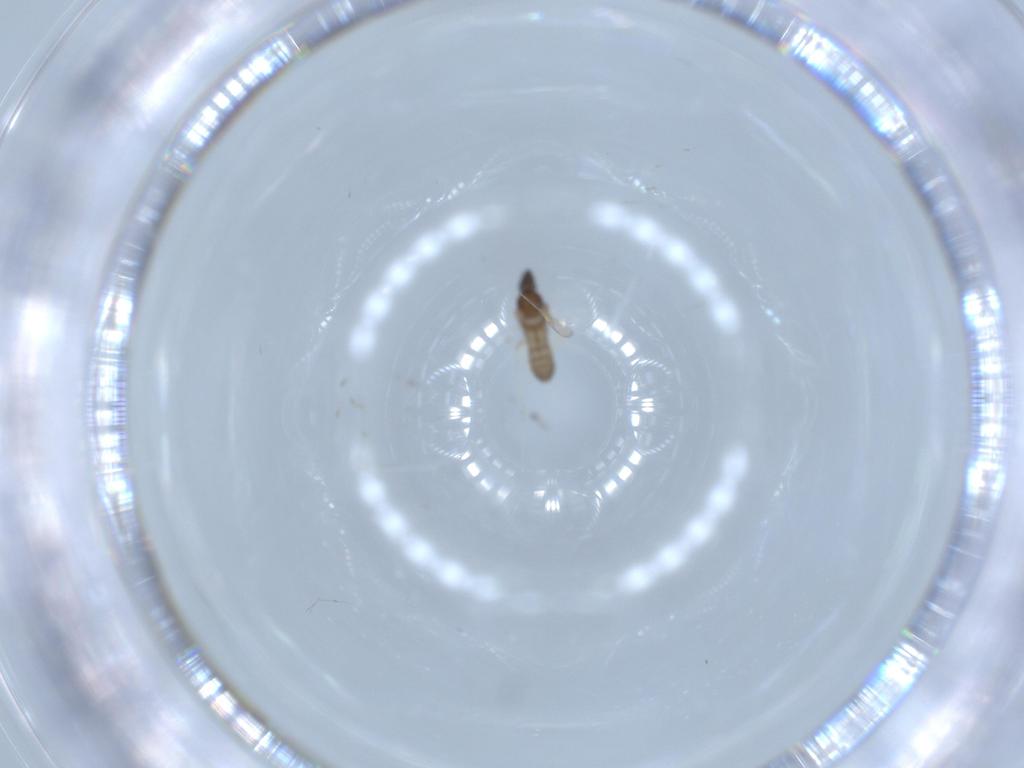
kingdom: Animalia
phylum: Arthropoda
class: Insecta
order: Diptera
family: Cecidomyiidae
